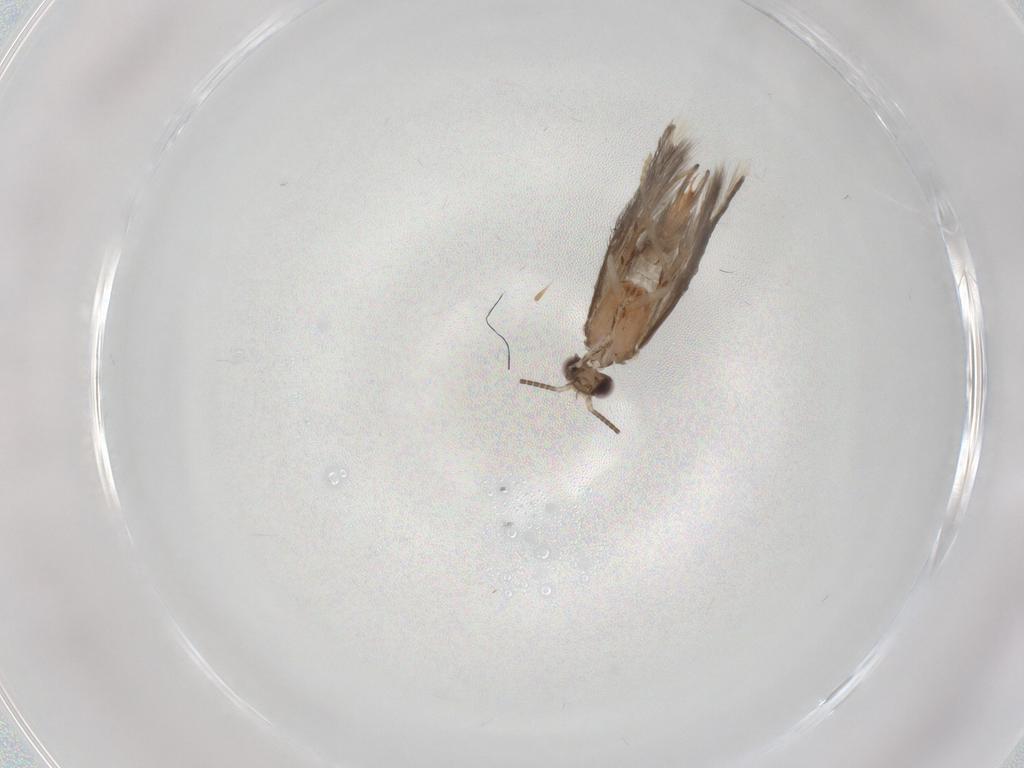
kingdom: Animalia
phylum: Arthropoda
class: Insecta
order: Trichoptera
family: Hydroptilidae
